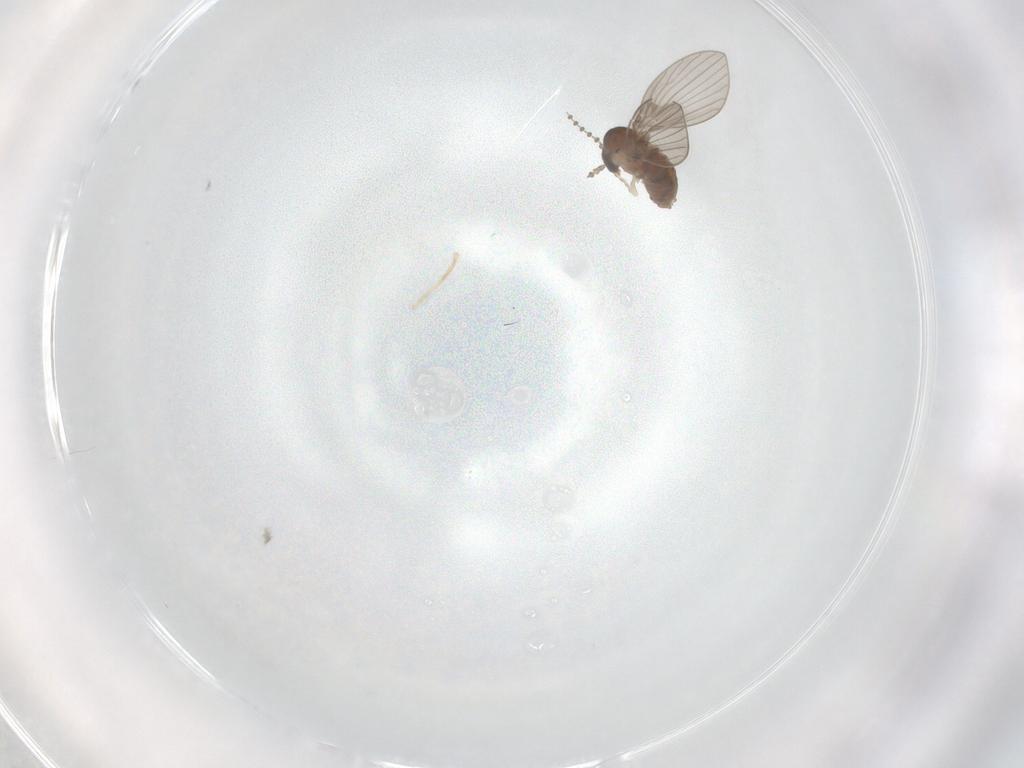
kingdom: Animalia
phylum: Arthropoda
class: Insecta
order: Diptera
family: Psychodidae
